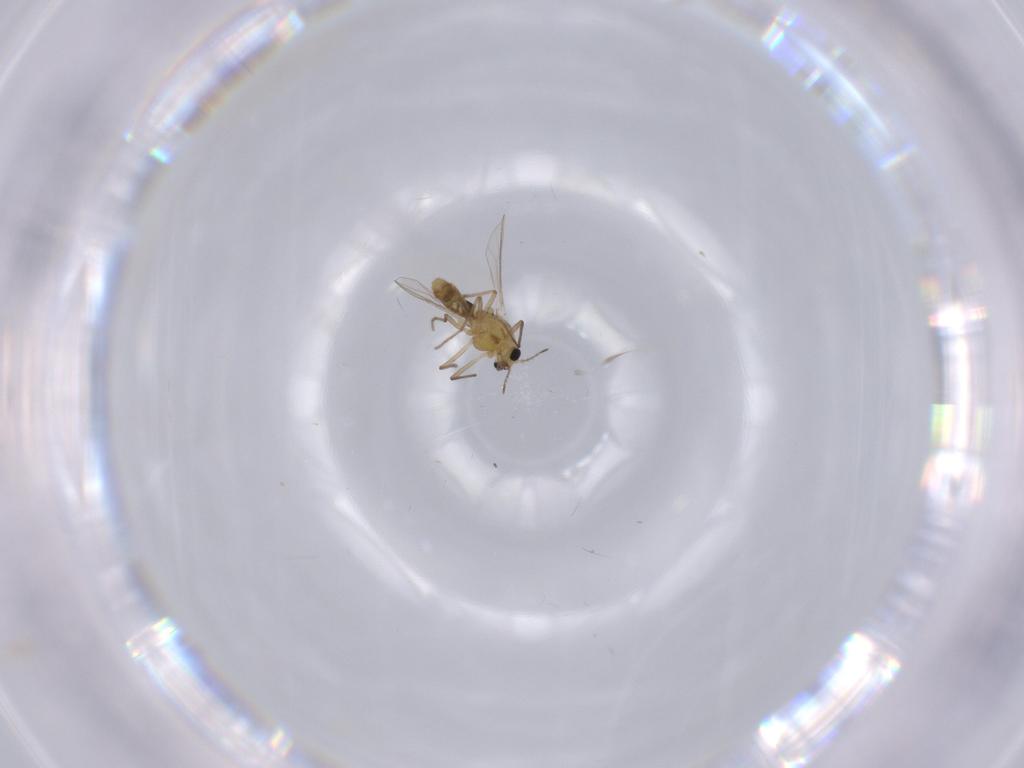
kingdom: Animalia
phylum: Arthropoda
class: Insecta
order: Diptera
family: Chironomidae
